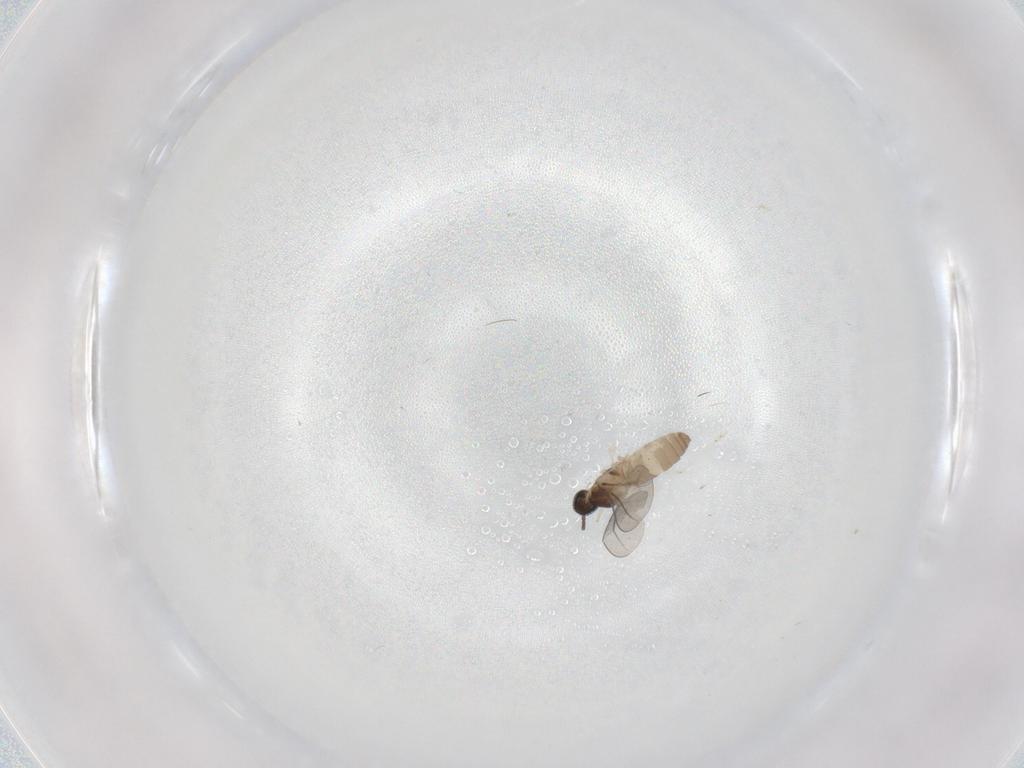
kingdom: Animalia
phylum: Arthropoda
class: Insecta
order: Diptera
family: Cecidomyiidae
